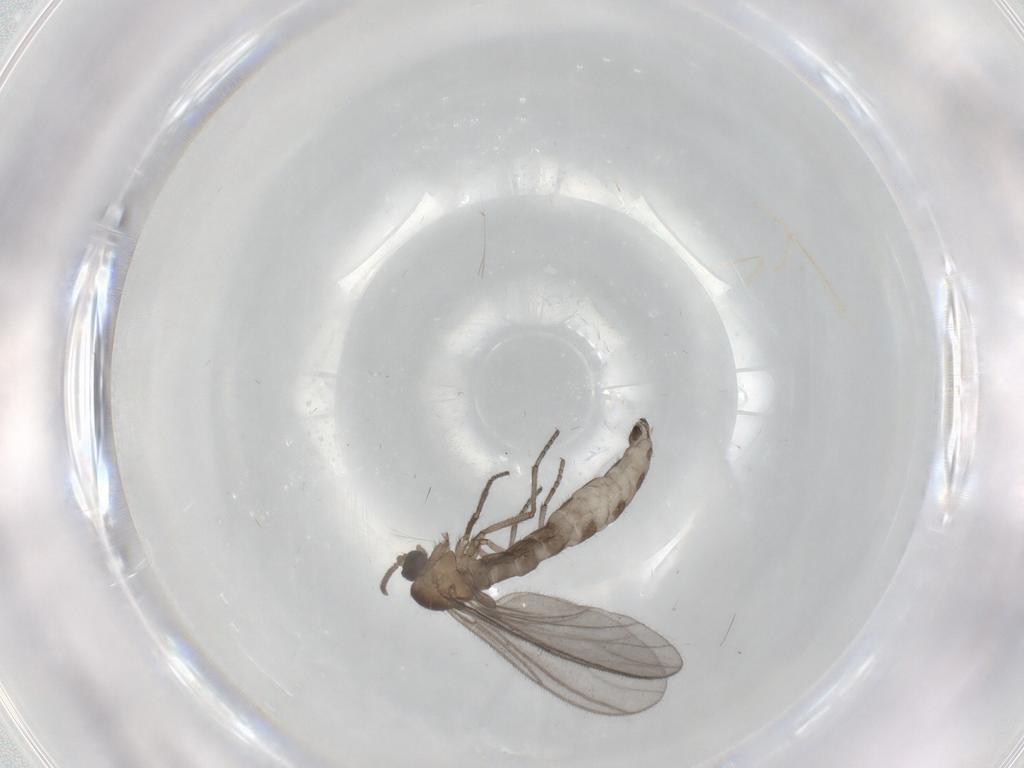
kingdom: Animalia
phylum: Arthropoda
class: Insecta
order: Diptera
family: Sciaridae
